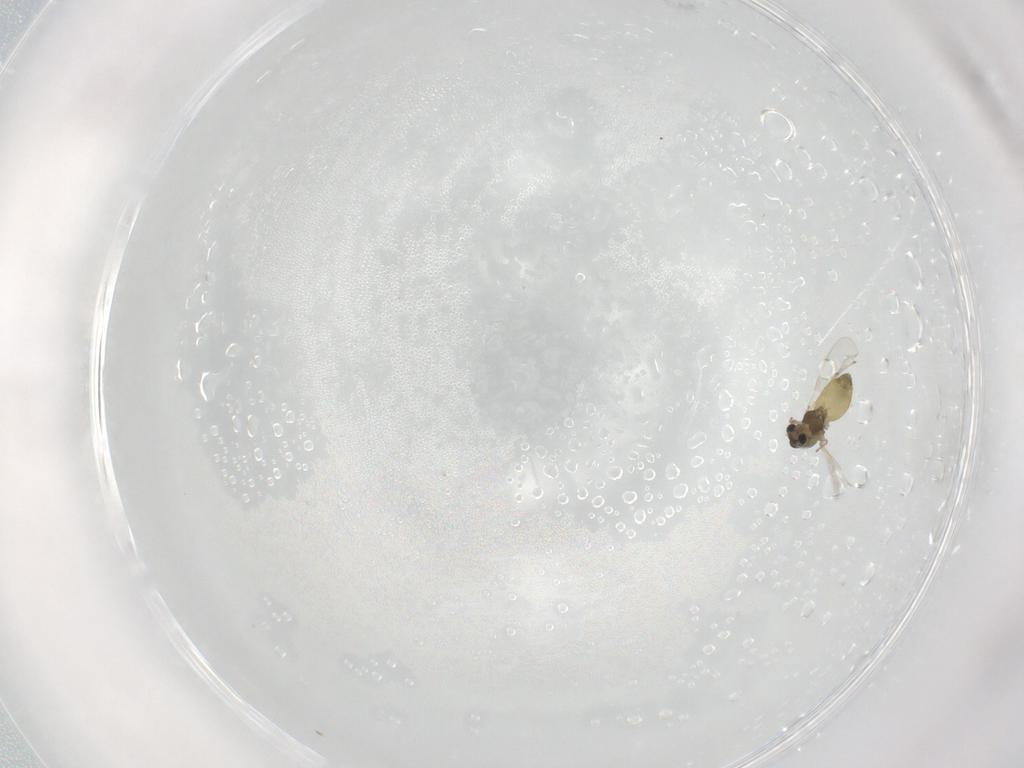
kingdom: Animalia
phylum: Arthropoda
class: Insecta
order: Diptera
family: Chironomidae
